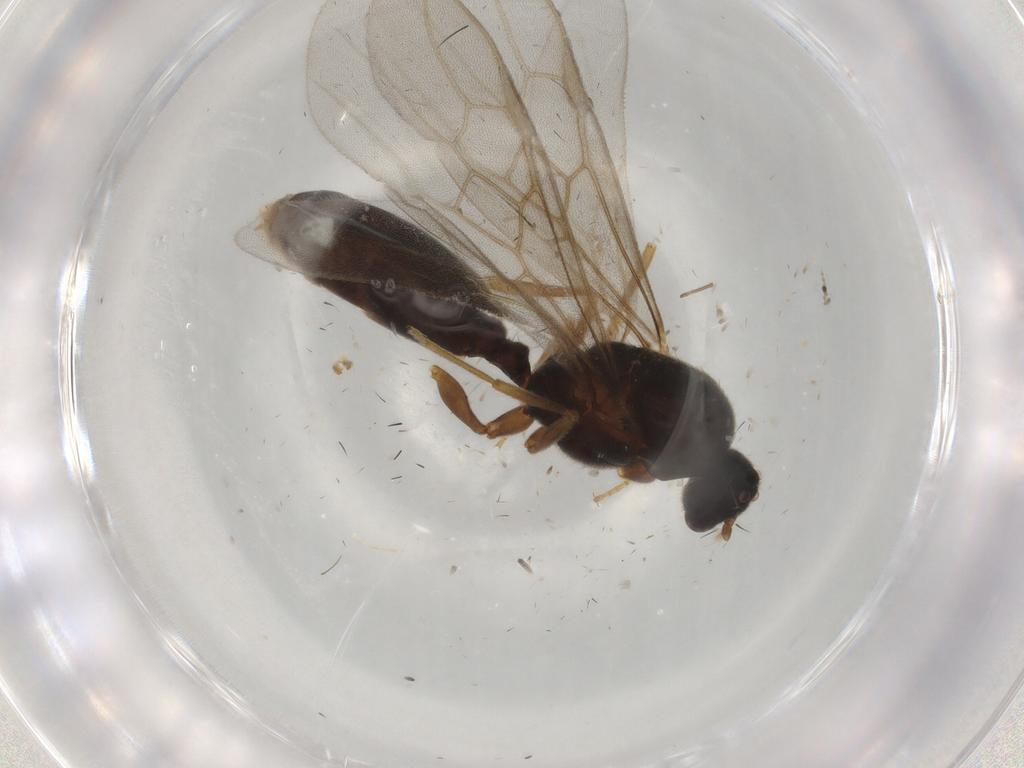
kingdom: Animalia
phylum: Arthropoda
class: Insecta
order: Hymenoptera
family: Formicidae
